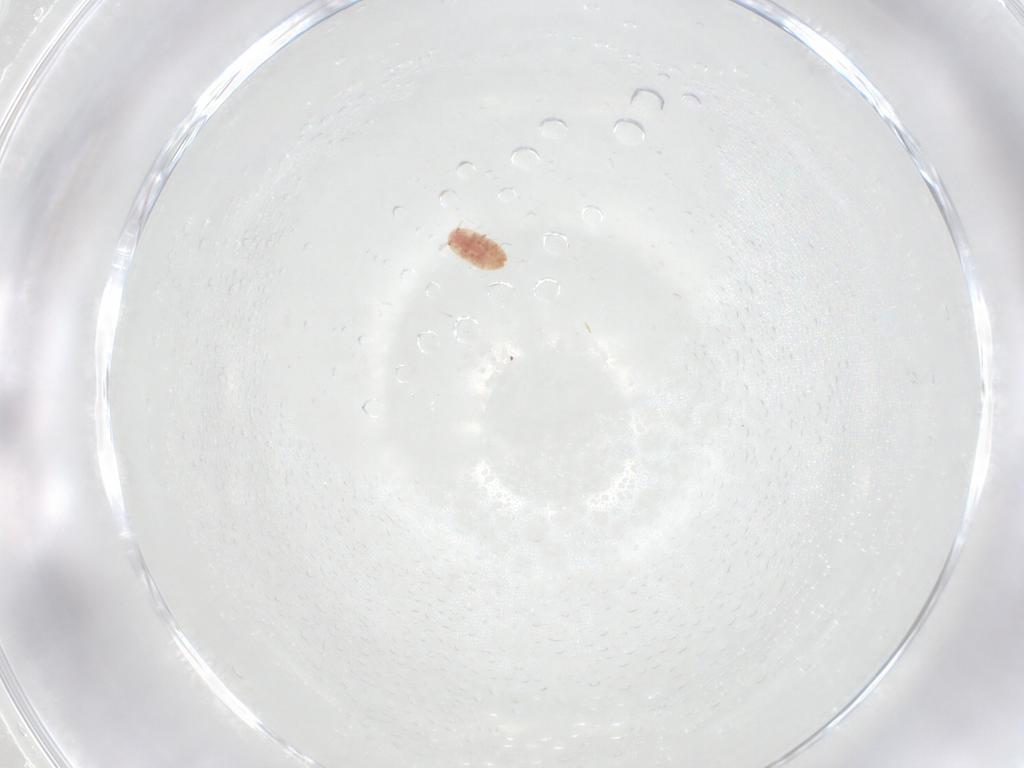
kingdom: Animalia
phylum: Arthropoda
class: Insecta
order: Hemiptera
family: Coccidae
